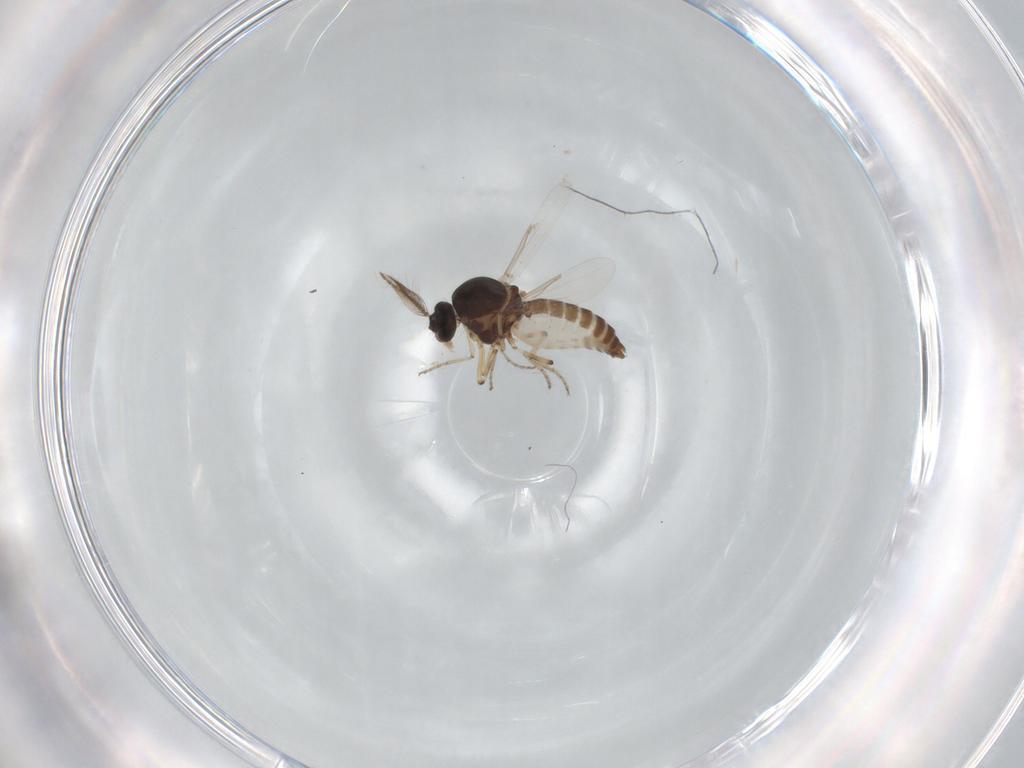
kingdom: Animalia
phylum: Arthropoda
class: Insecta
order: Diptera
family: Ceratopogonidae
